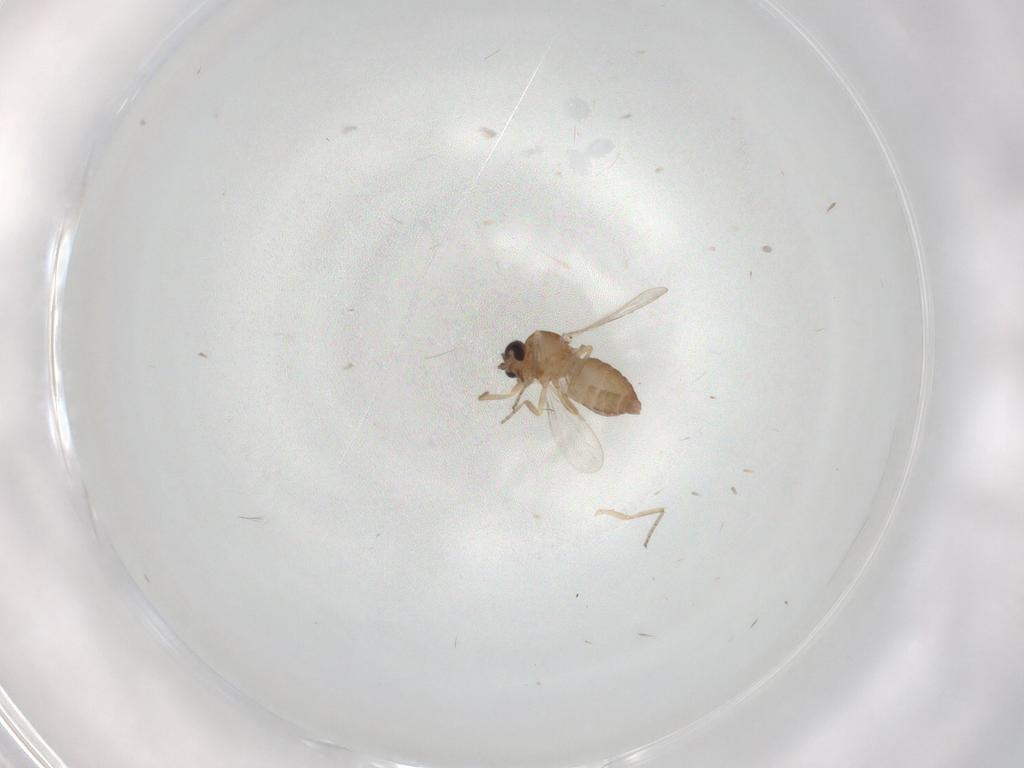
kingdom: Animalia
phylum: Arthropoda
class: Insecta
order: Diptera
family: Ceratopogonidae
